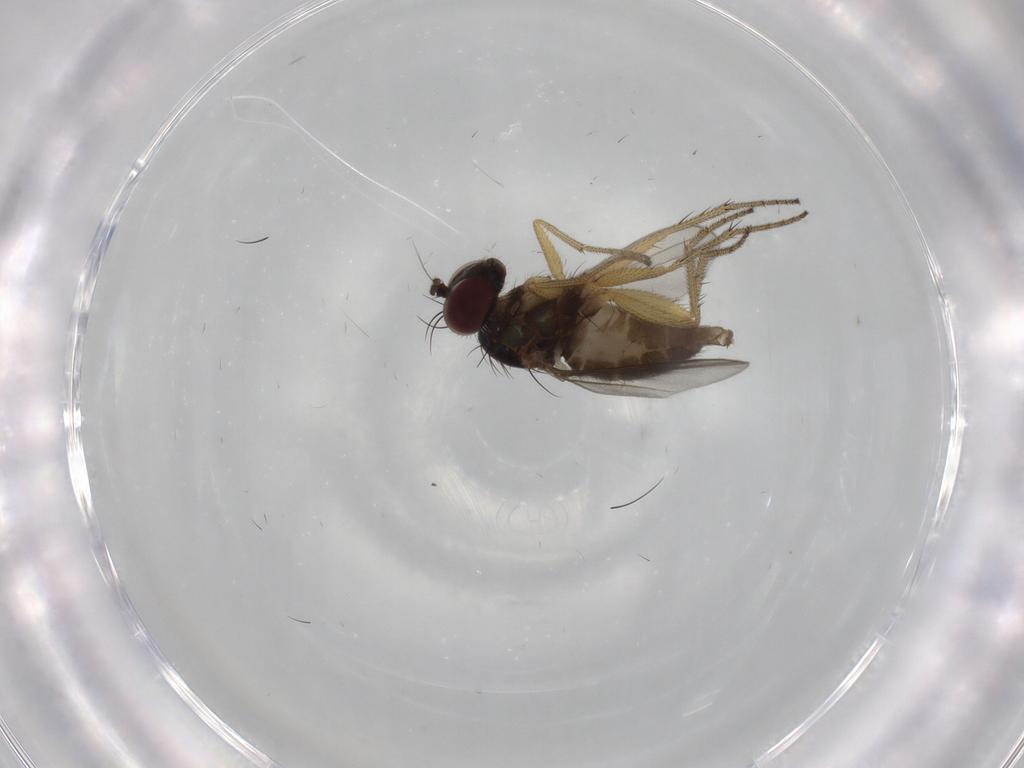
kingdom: Animalia
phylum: Arthropoda
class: Insecta
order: Diptera
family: Dolichopodidae
